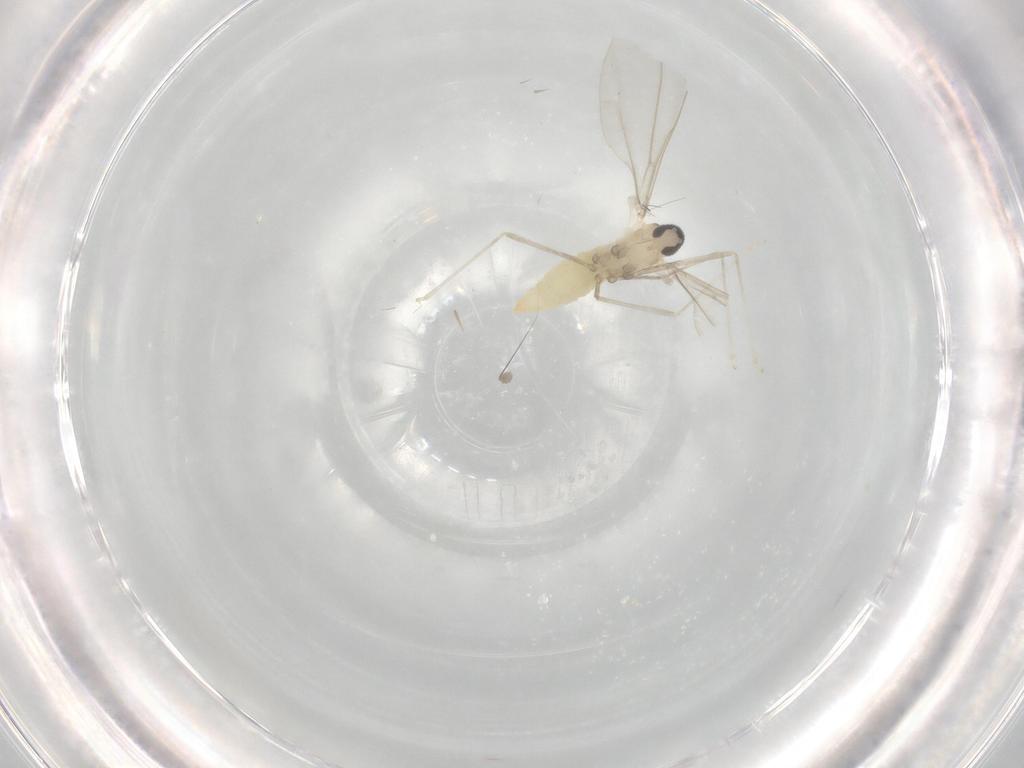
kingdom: Animalia
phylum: Arthropoda
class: Insecta
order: Diptera
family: Cecidomyiidae
